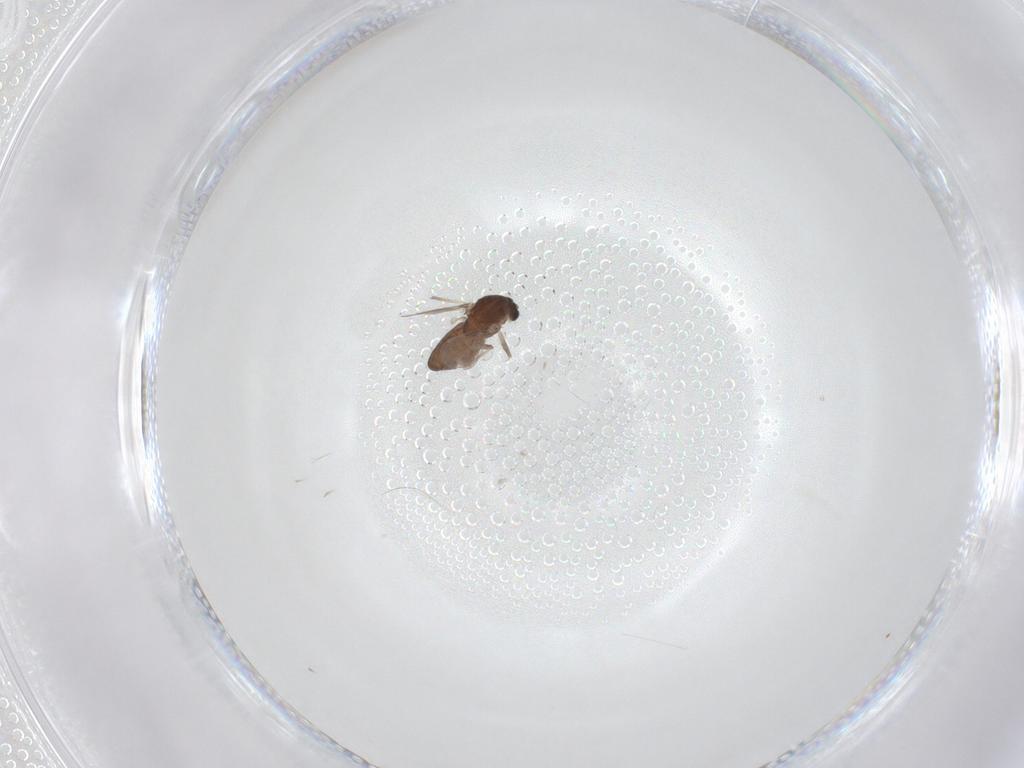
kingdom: Animalia
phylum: Arthropoda
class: Insecta
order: Diptera
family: Chironomidae
